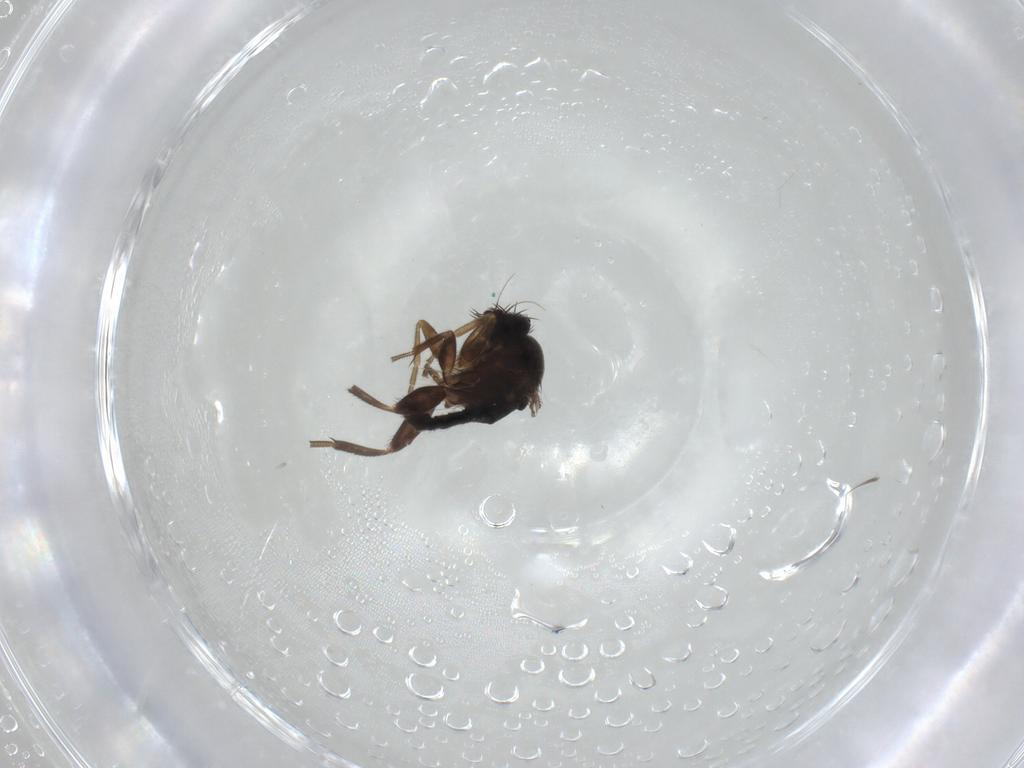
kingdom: Animalia
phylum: Arthropoda
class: Insecta
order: Diptera
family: Phoridae
